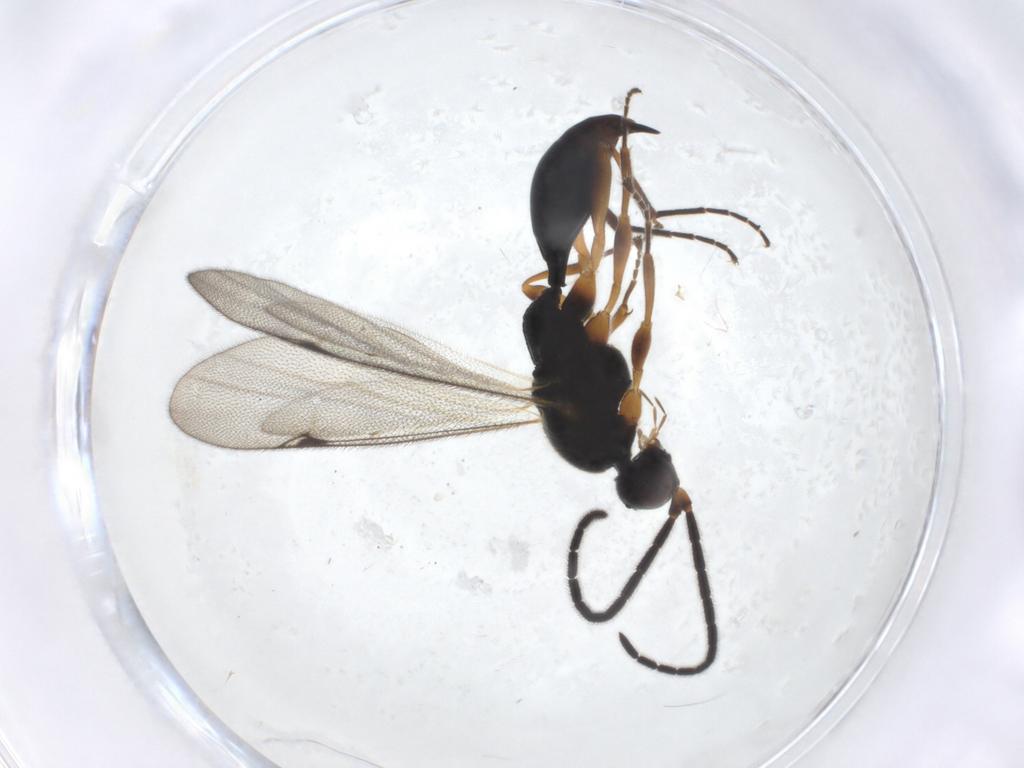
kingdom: Animalia
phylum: Arthropoda
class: Insecta
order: Hymenoptera
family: Proctotrupidae
